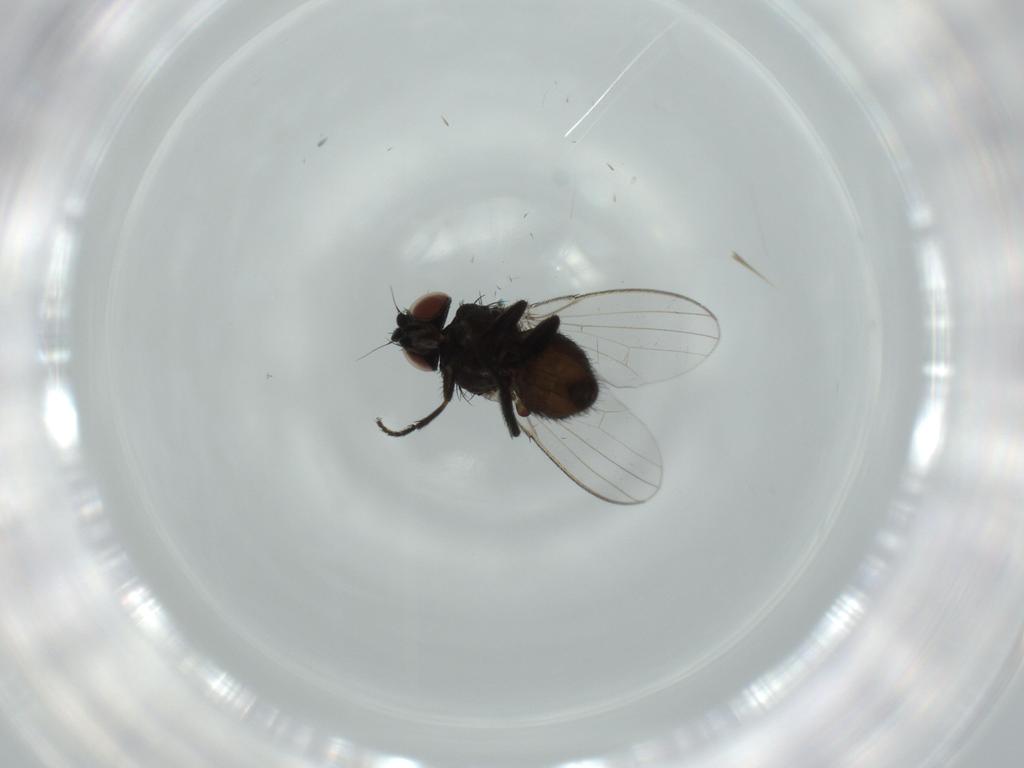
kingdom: Animalia
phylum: Arthropoda
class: Insecta
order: Diptera
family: Milichiidae
